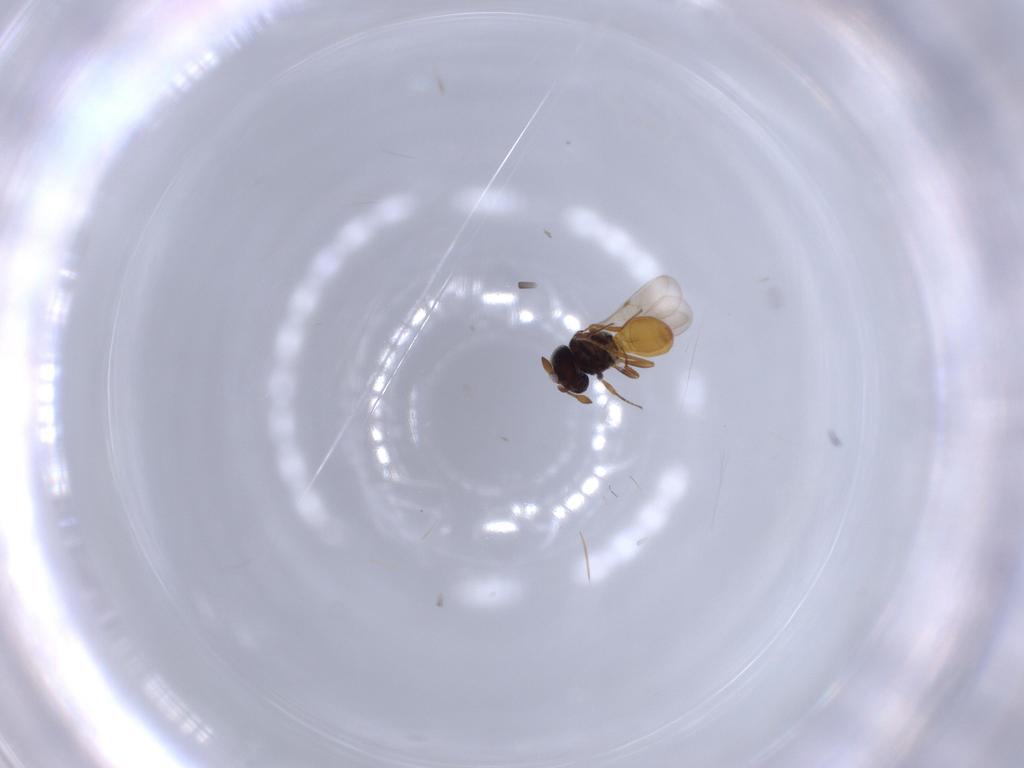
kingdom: Animalia
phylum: Arthropoda
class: Insecta
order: Hymenoptera
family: Scelionidae
